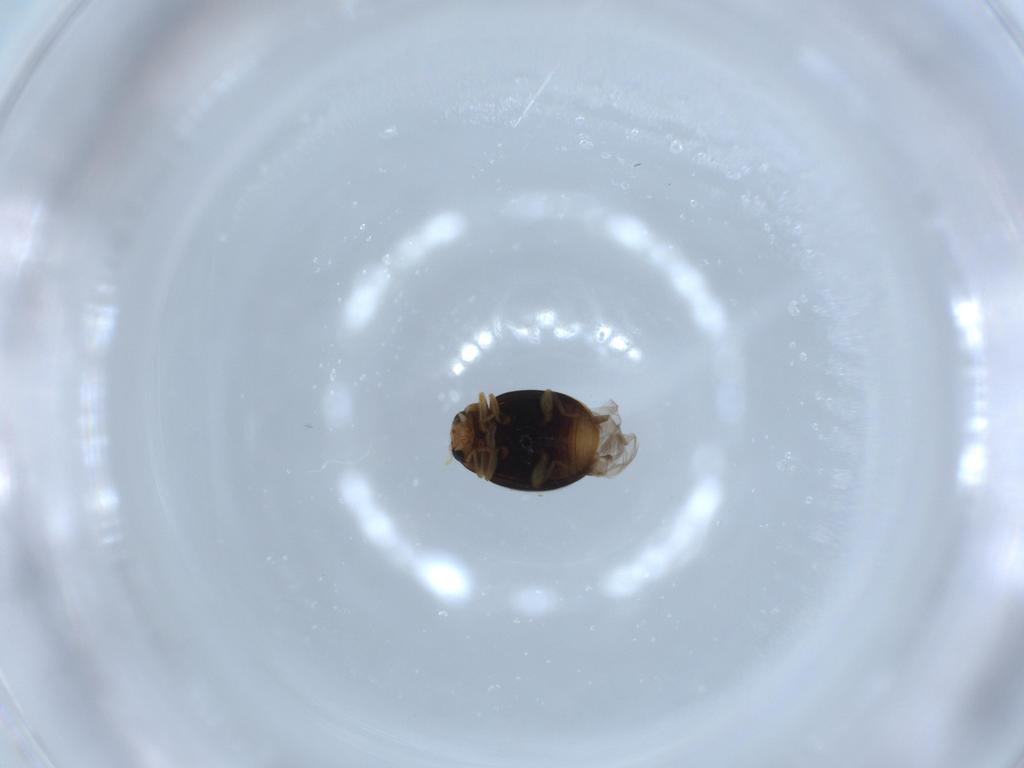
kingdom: Animalia
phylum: Arthropoda
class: Insecta
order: Coleoptera
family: Coccinellidae
